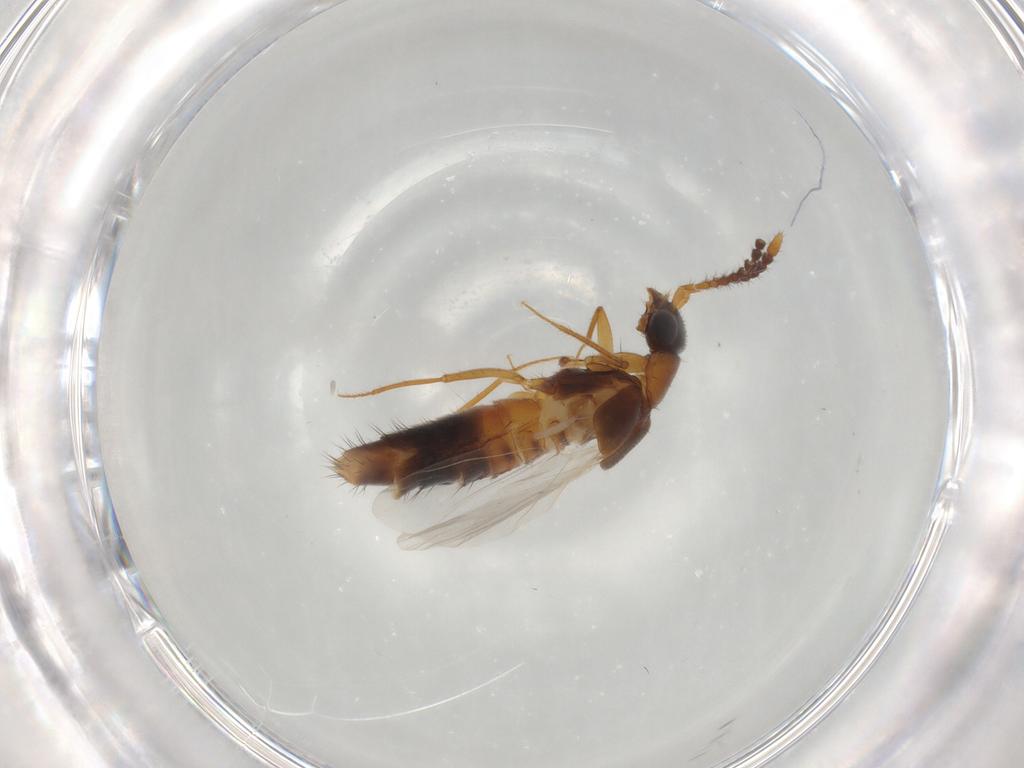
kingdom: Animalia
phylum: Arthropoda
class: Insecta
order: Coleoptera
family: Staphylinidae
